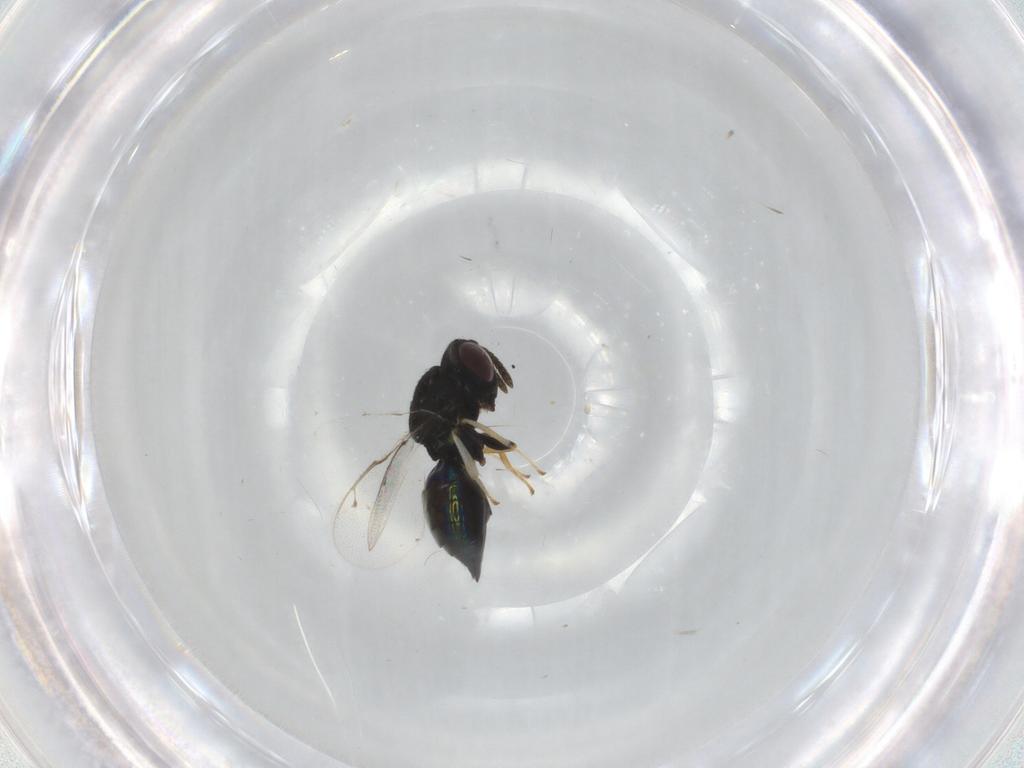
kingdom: Animalia
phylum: Arthropoda
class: Insecta
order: Hymenoptera
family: Pteromalidae
